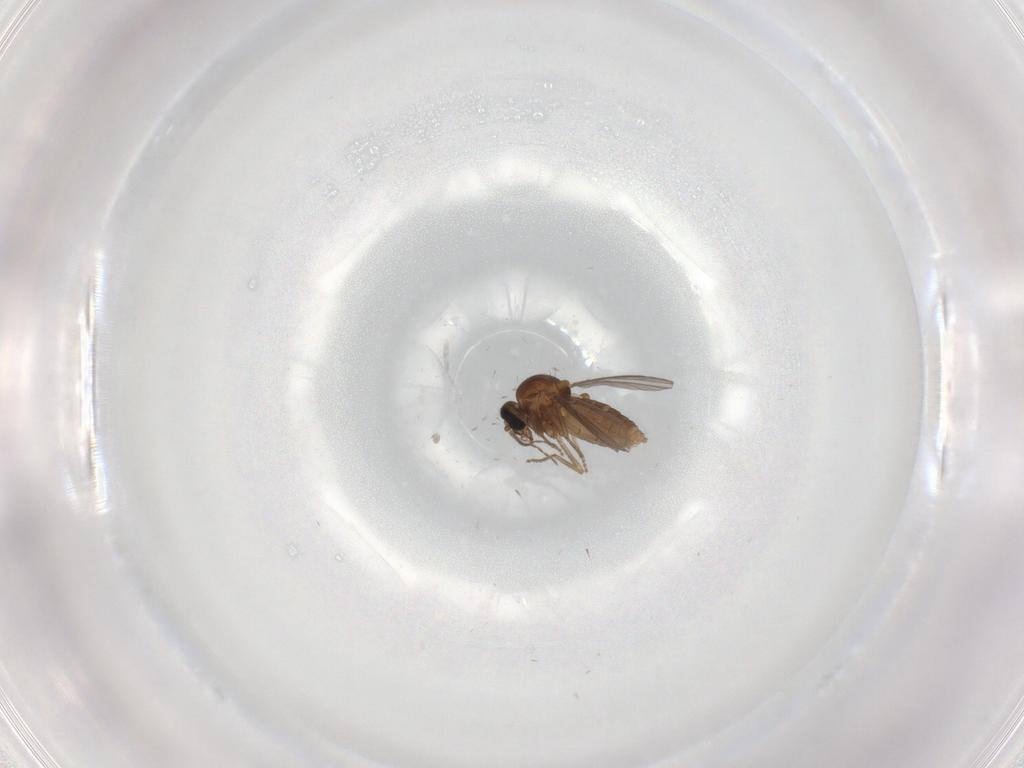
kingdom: Animalia
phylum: Arthropoda
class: Insecta
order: Diptera
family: Ceratopogonidae
